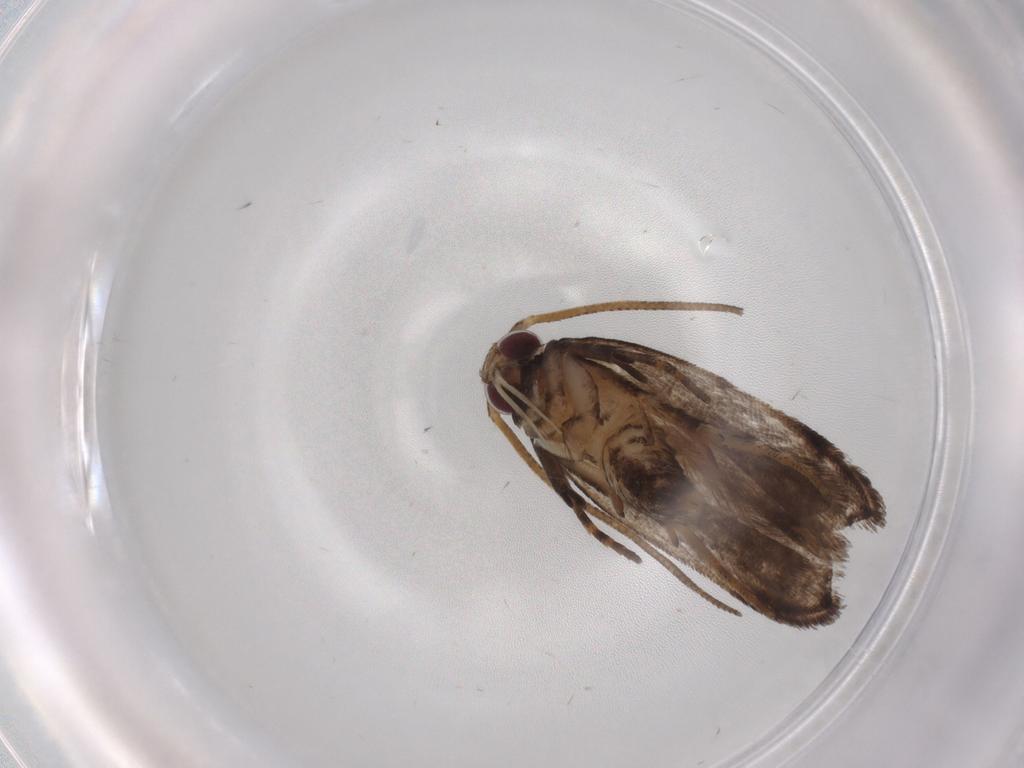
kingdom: Animalia
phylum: Arthropoda
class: Insecta
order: Lepidoptera
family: Gelechiidae
